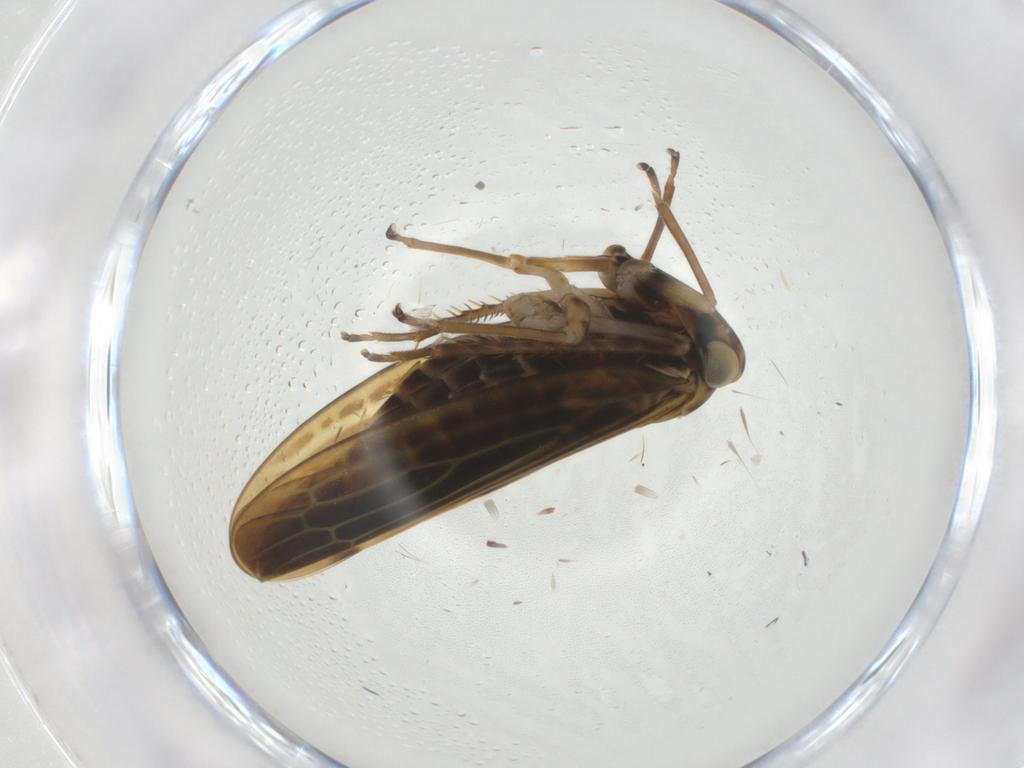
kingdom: Animalia
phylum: Arthropoda
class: Insecta
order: Hemiptera
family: Cicadellidae
